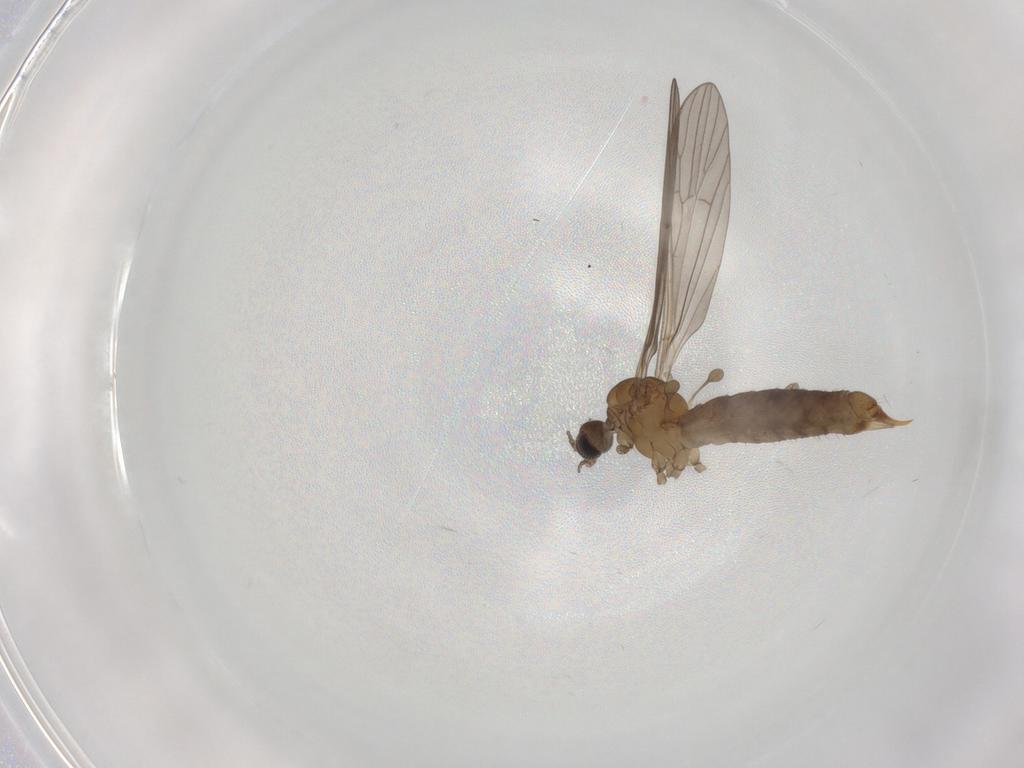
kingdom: Animalia
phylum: Arthropoda
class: Insecta
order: Diptera
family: Limoniidae
